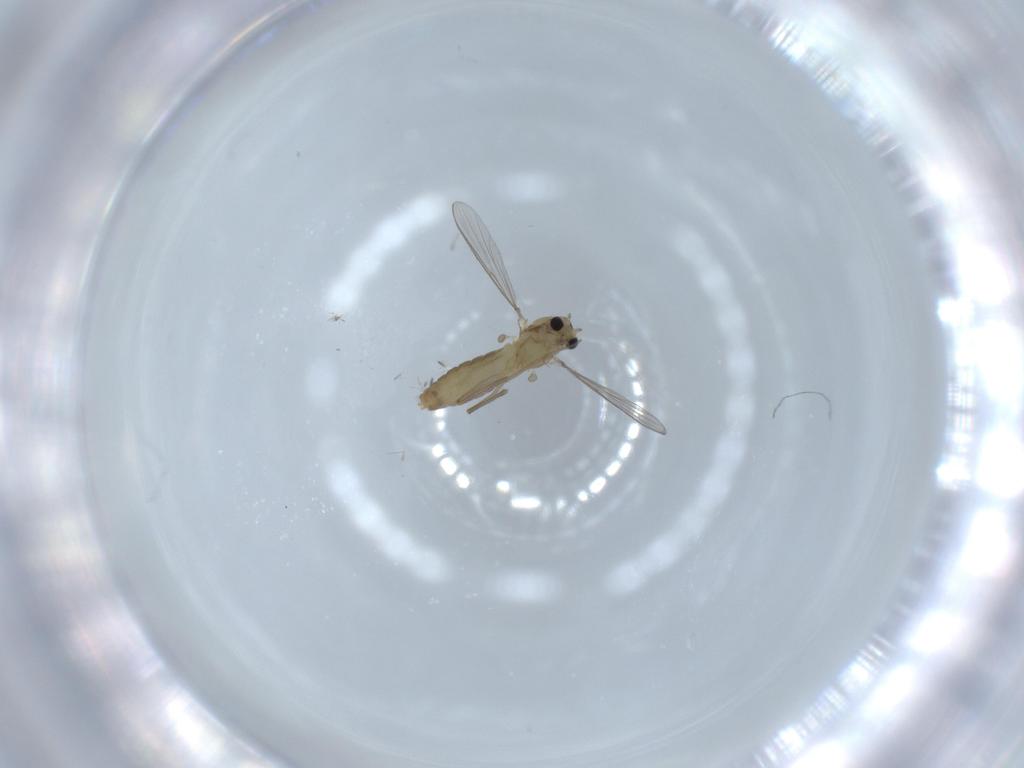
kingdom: Animalia
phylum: Arthropoda
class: Insecta
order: Diptera
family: Chironomidae
